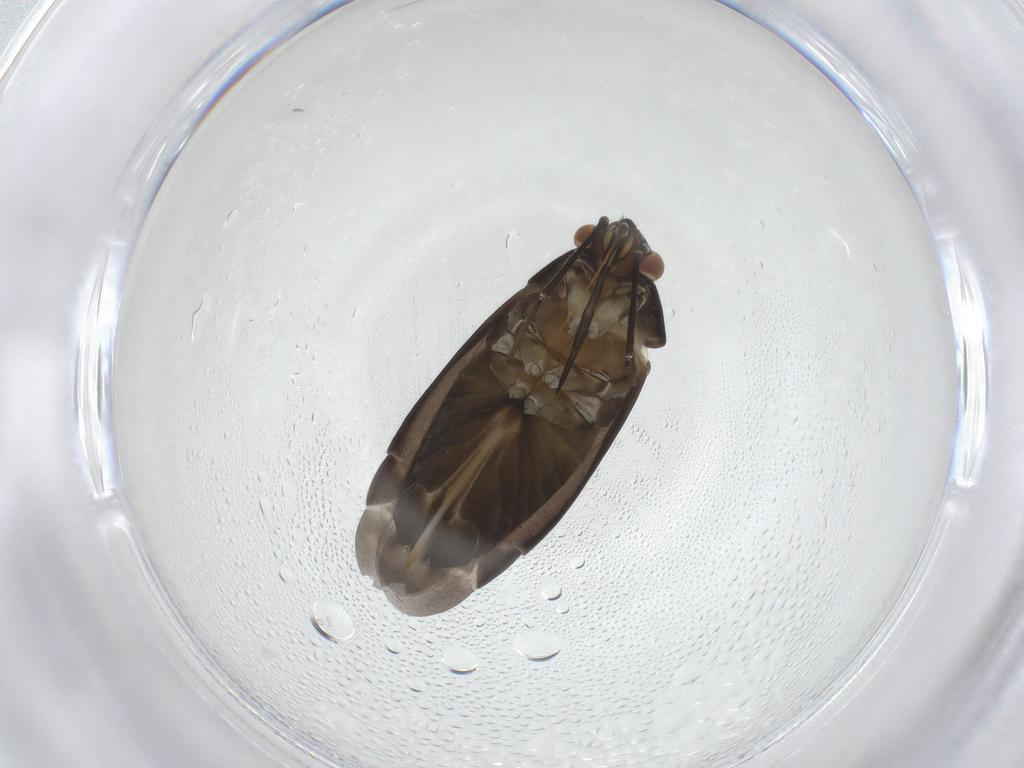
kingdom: Animalia
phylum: Arthropoda
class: Insecta
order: Hemiptera
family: Miridae
